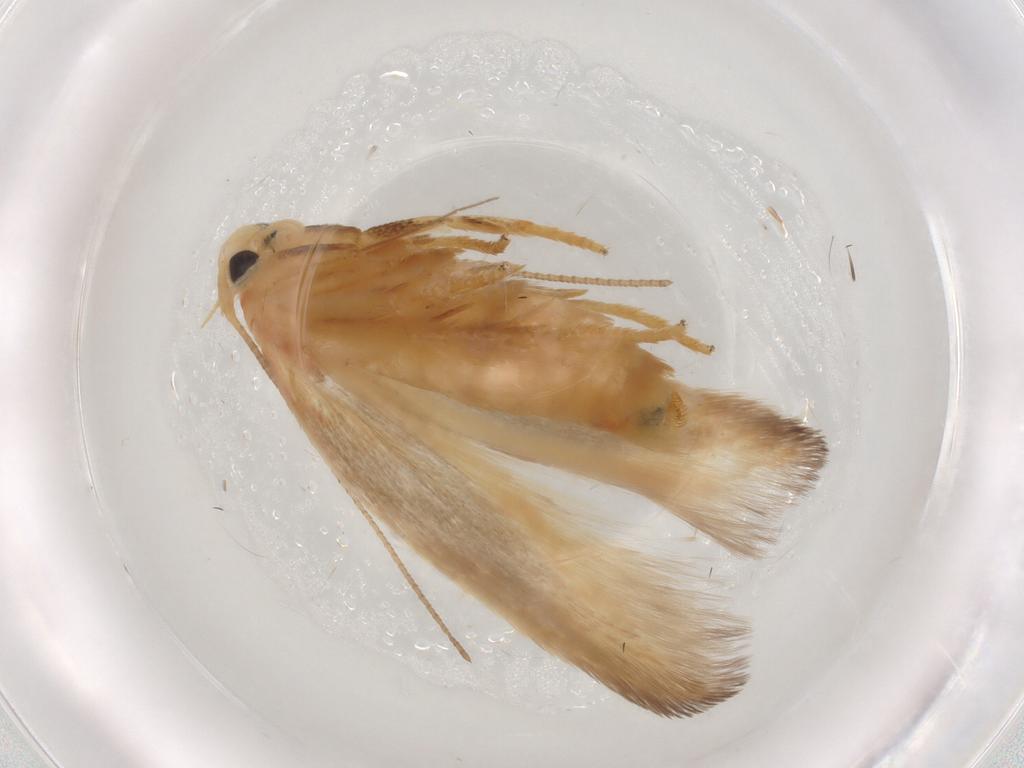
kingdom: Animalia
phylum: Arthropoda
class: Insecta
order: Lepidoptera
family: Geometridae
